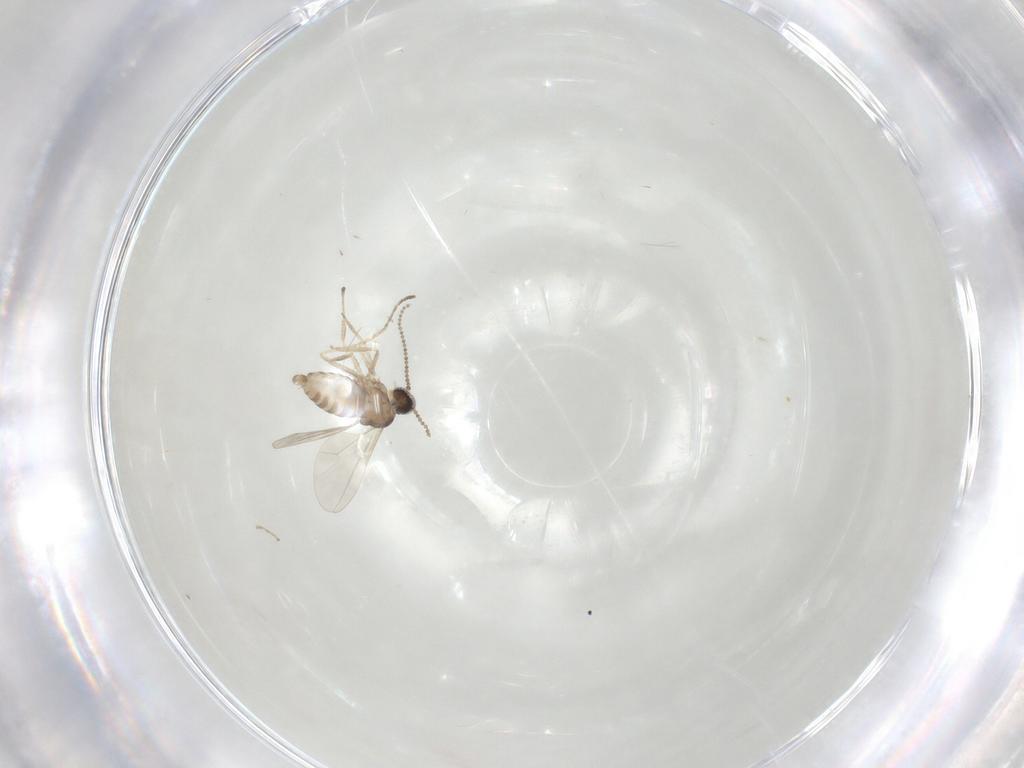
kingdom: Animalia
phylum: Arthropoda
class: Insecta
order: Diptera
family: Cecidomyiidae
